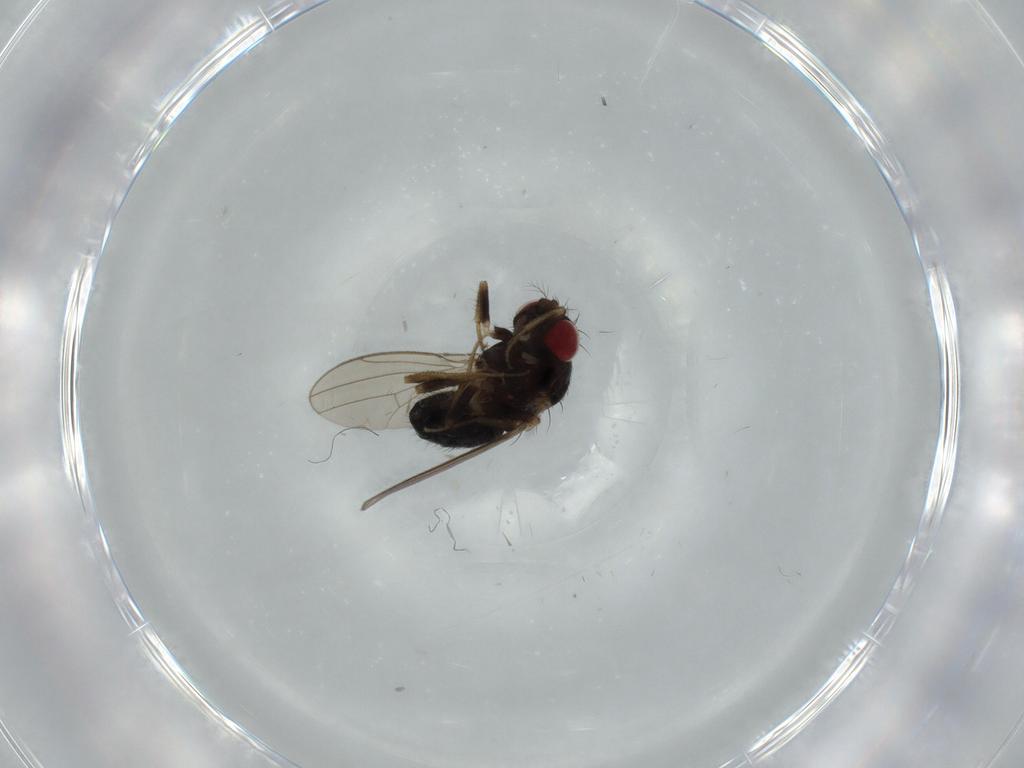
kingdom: Animalia
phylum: Arthropoda
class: Insecta
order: Diptera
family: Drosophilidae
